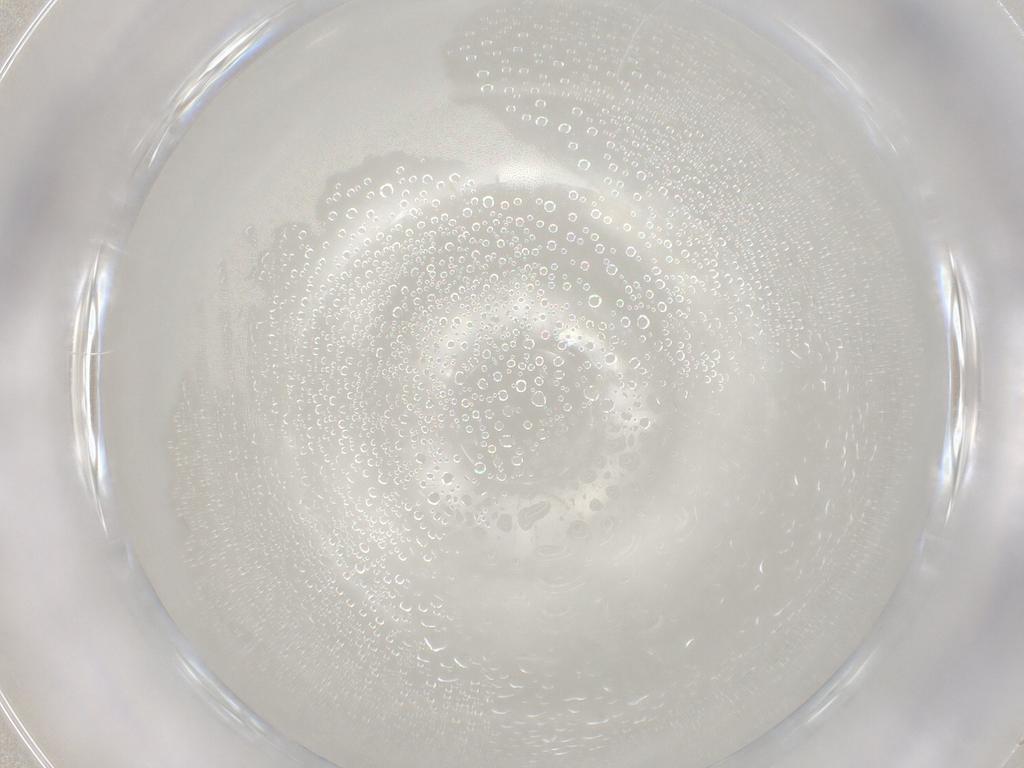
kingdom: Animalia
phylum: Arthropoda
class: Insecta
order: Hymenoptera
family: Ichneumonidae
